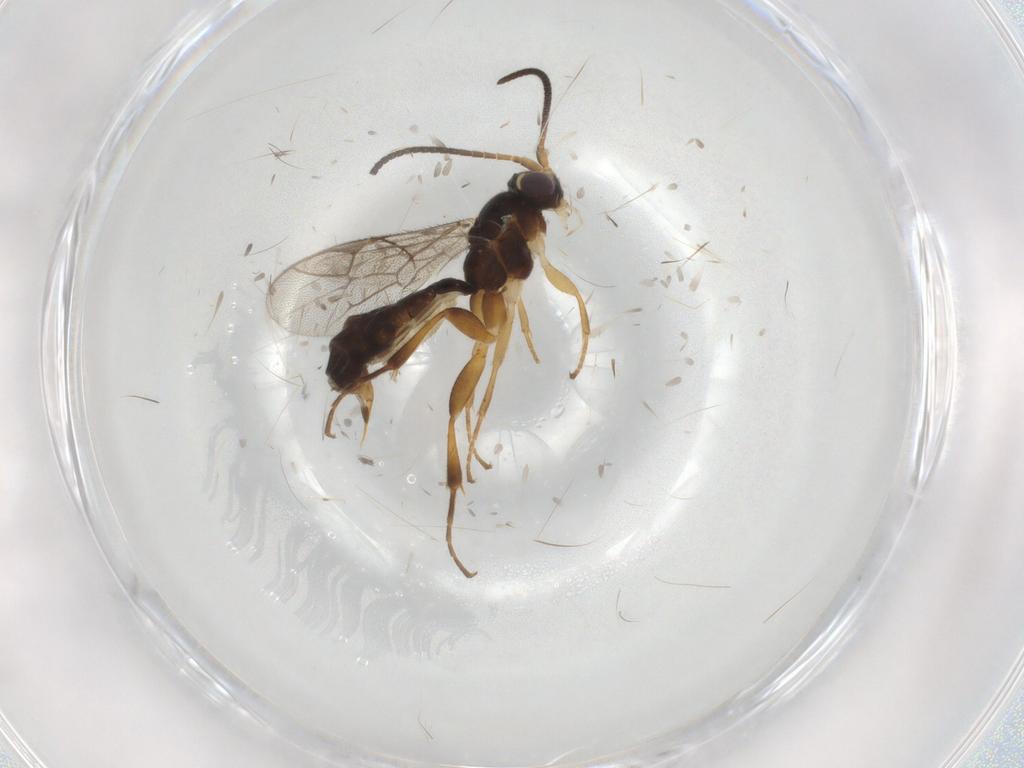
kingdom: Animalia
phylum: Arthropoda
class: Insecta
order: Hymenoptera
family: Ichneumonidae
